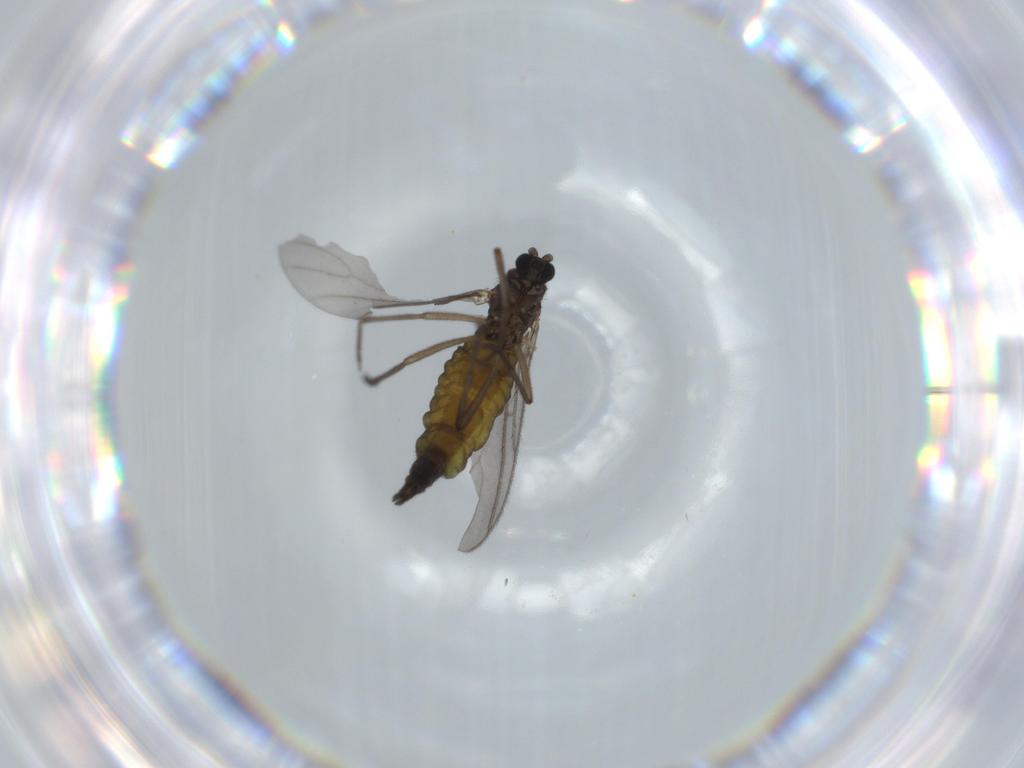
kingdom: Animalia
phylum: Arthropoda
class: Insecta
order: Diptera
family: Sciaridae
